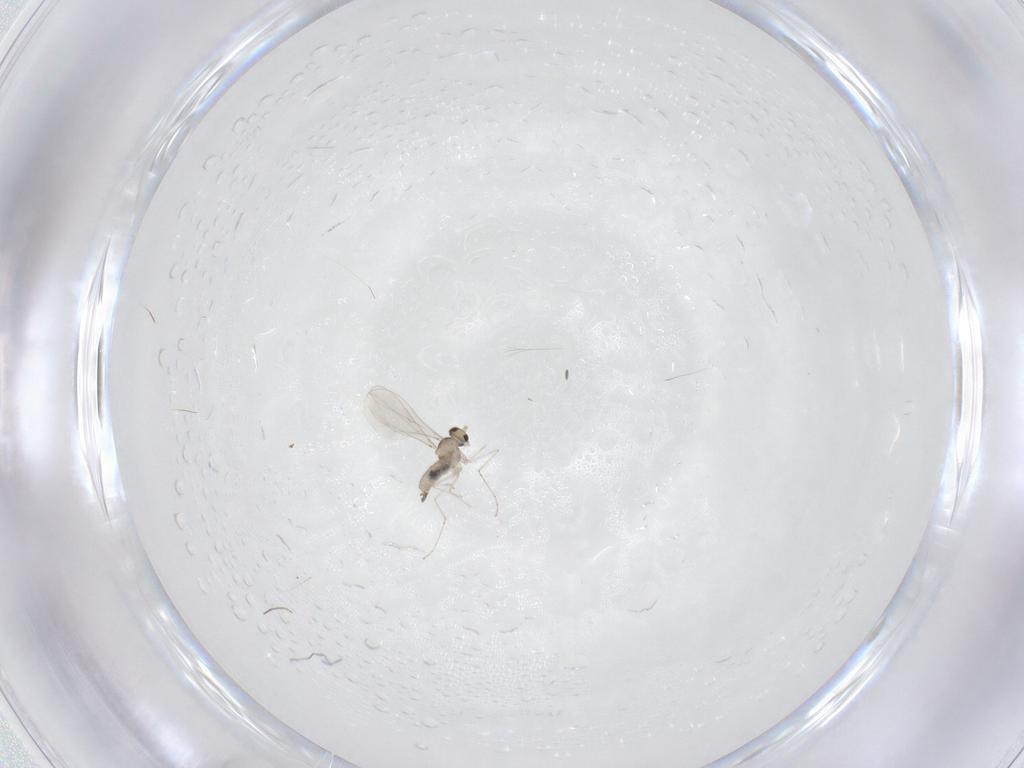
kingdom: Animalia
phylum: Arthropoda
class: Insecta
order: Diptera
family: Cecidomyiidae
